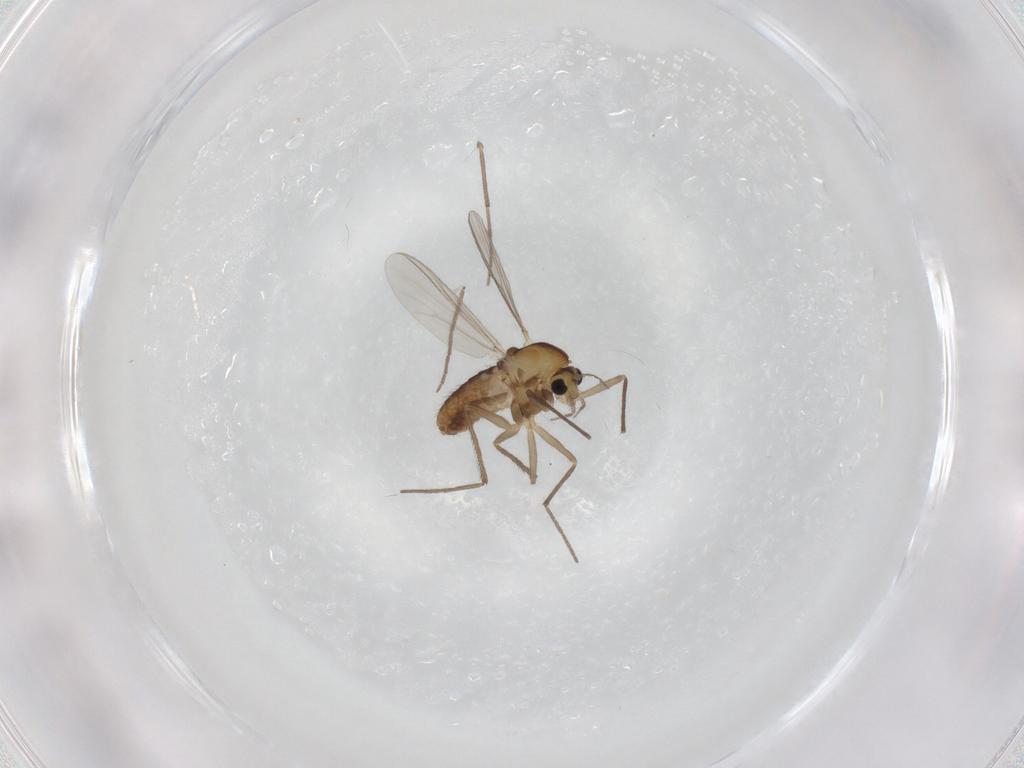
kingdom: Animalia
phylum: Arthropoda
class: Insecta
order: Diptera
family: Chironomidae
